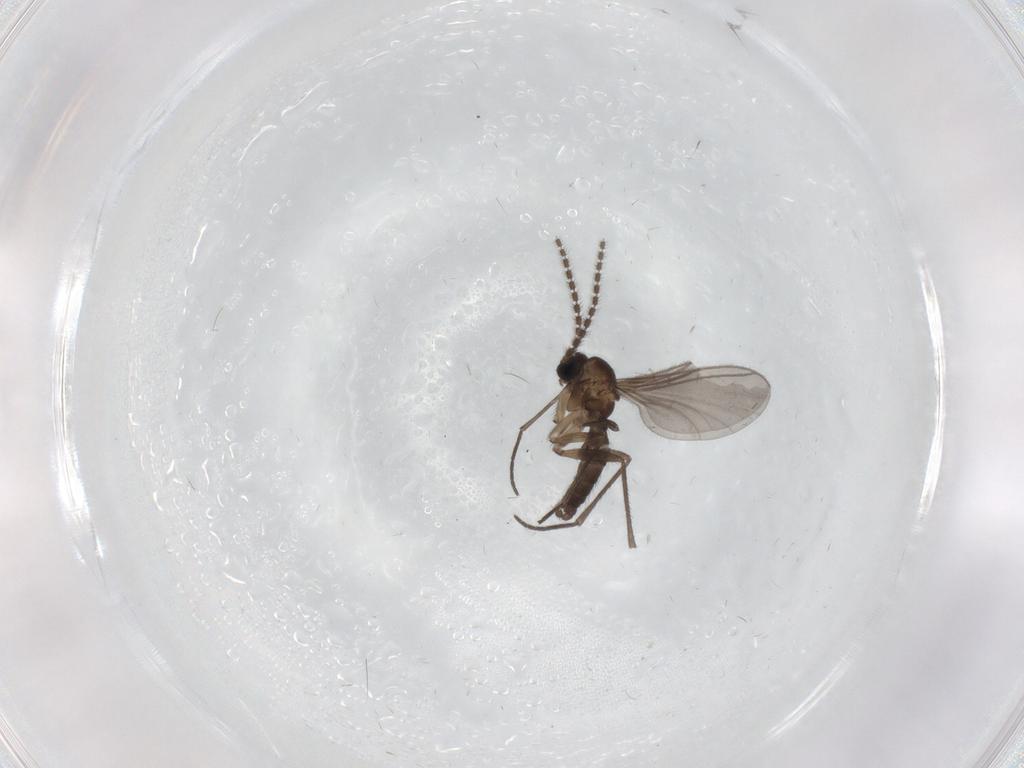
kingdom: Animalia
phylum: Arthropoda
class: Insecta
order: Diptera
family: Sciaridae
